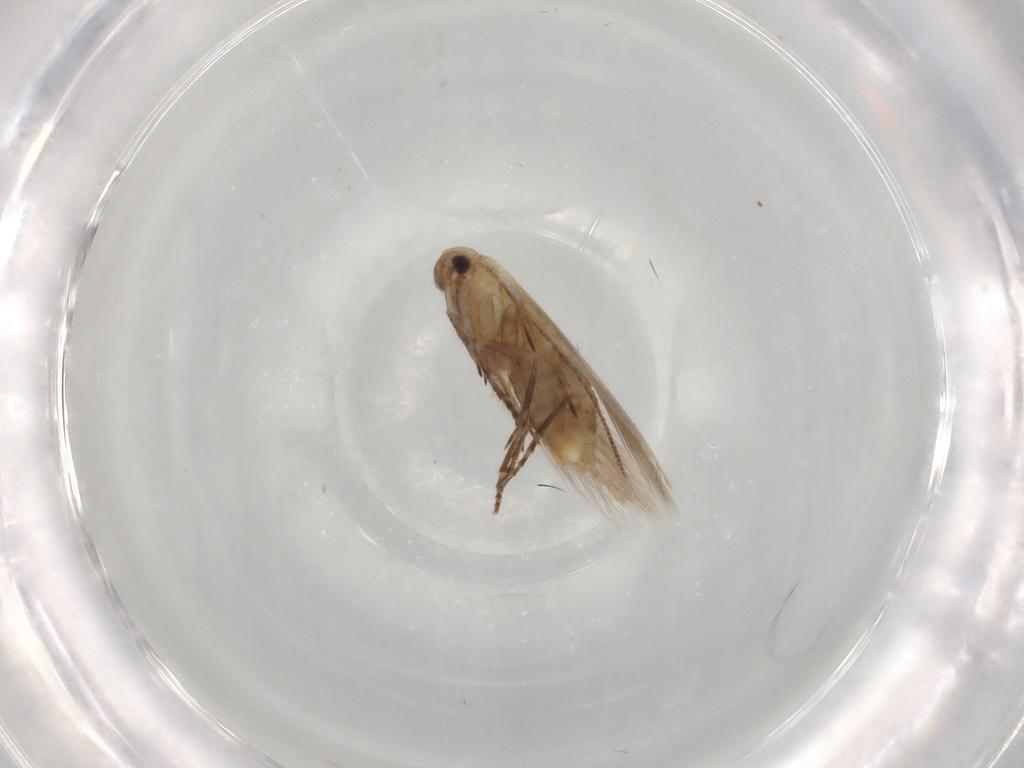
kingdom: Animalia
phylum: Arthropoda
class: Insecta
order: Lepidoptera
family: Bucculatricidae
